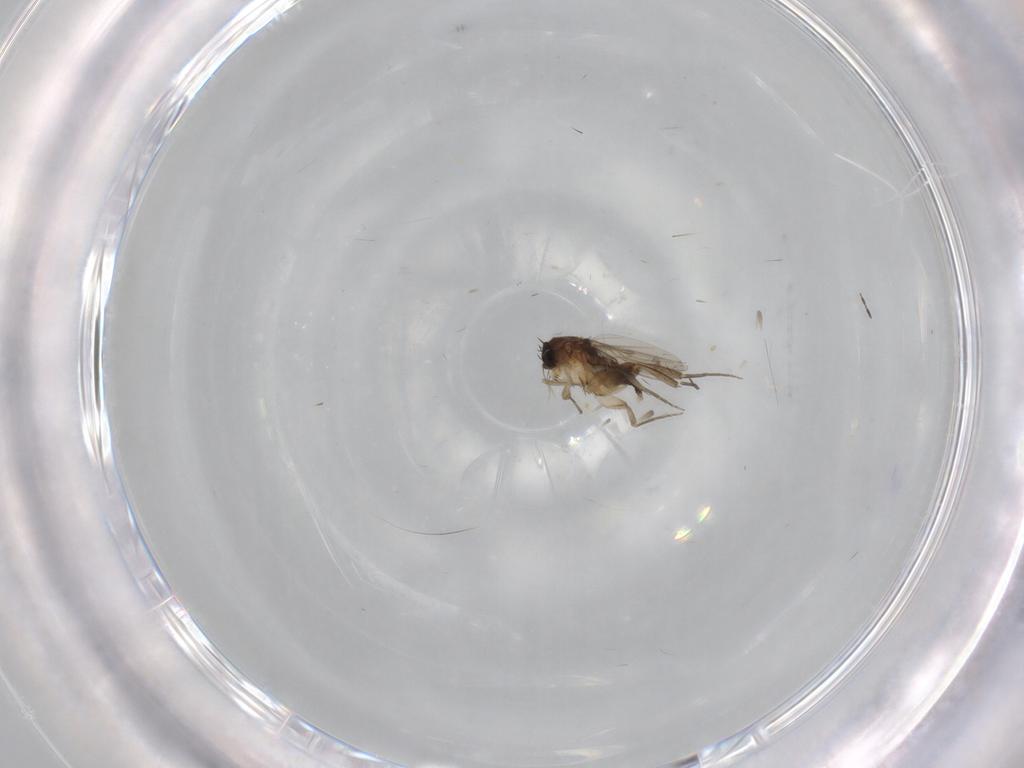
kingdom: Animalia
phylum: Arthropoda
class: Insecta
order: Diptera
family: Phoridae
